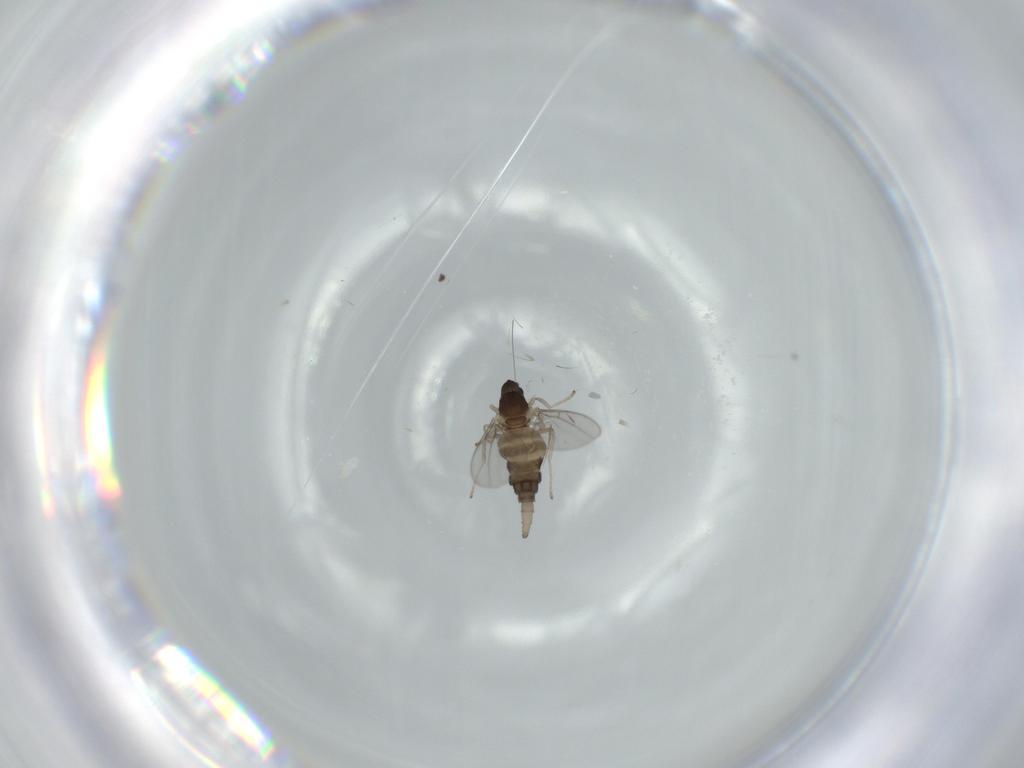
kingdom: Animalia
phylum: Arthropoda
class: Insecta
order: Diptera
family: Cecidomyiidae
